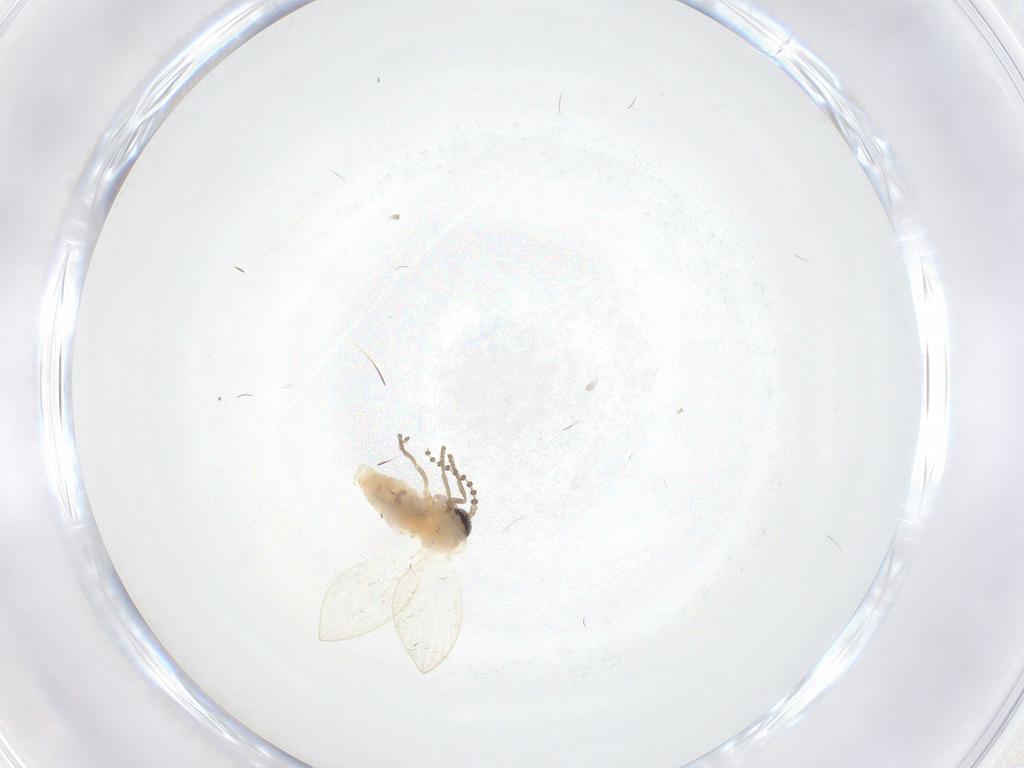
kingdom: Animalia
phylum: Arthropoda
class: Insecta
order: Diptera
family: Psychodidae
